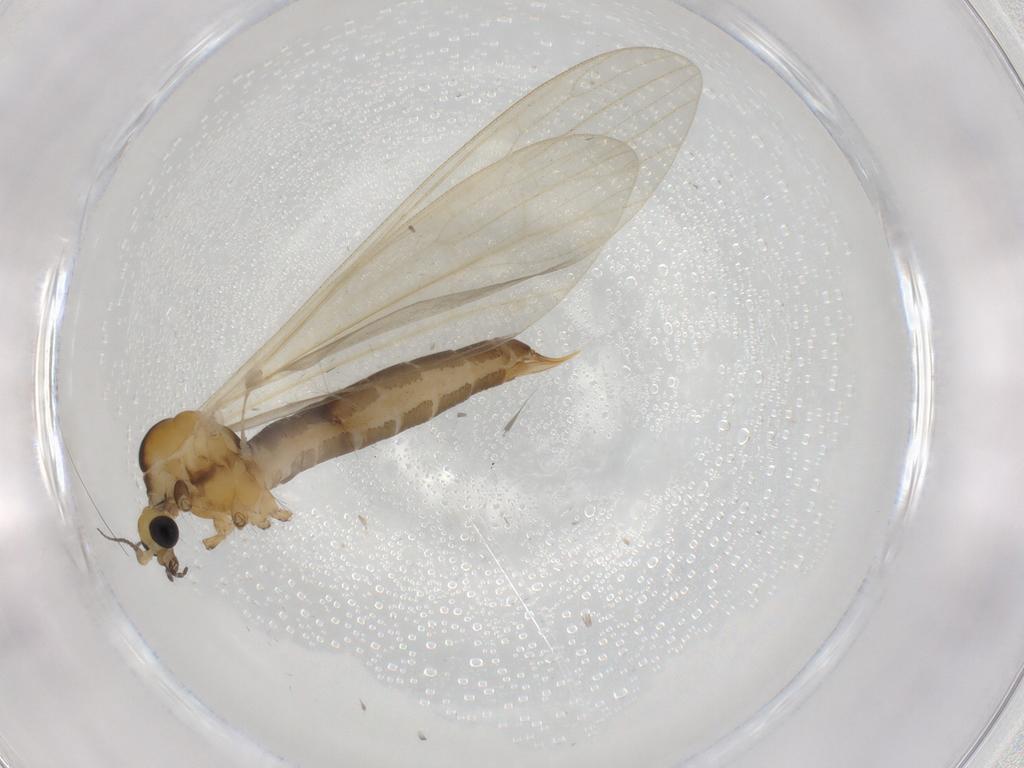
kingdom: Animalia
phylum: Arthropoda
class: Insecta
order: Diptera
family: Limoniidae
